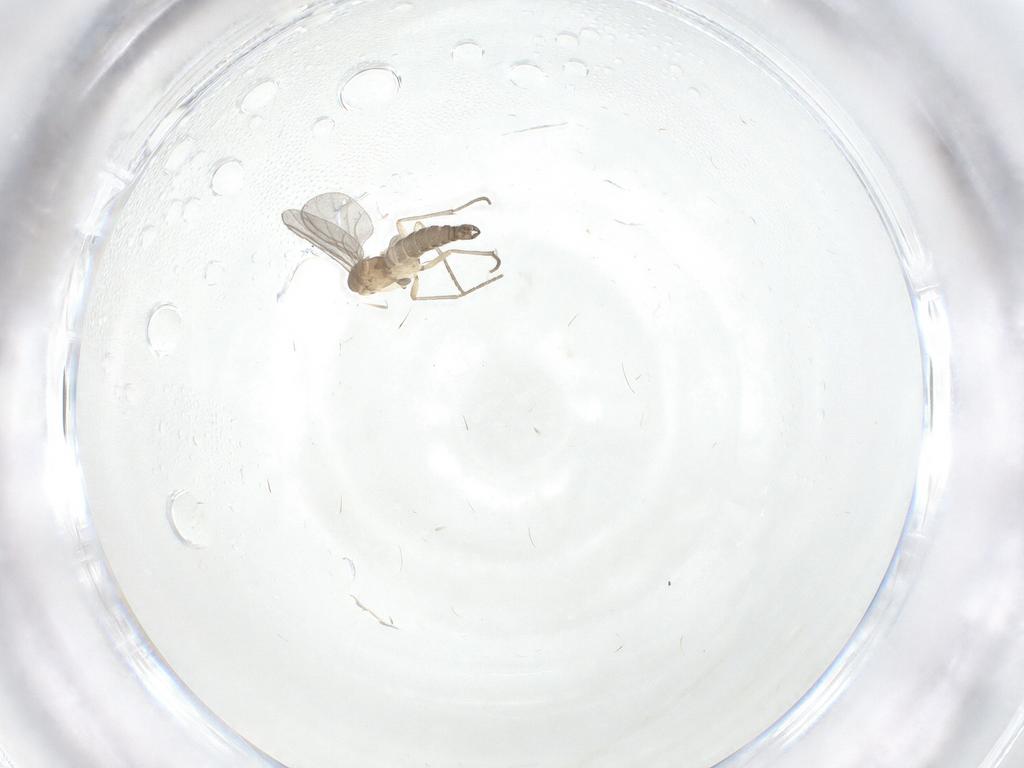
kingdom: Animalia
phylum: Arthropoda
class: Insecta
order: Diptera
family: Sciaridae
